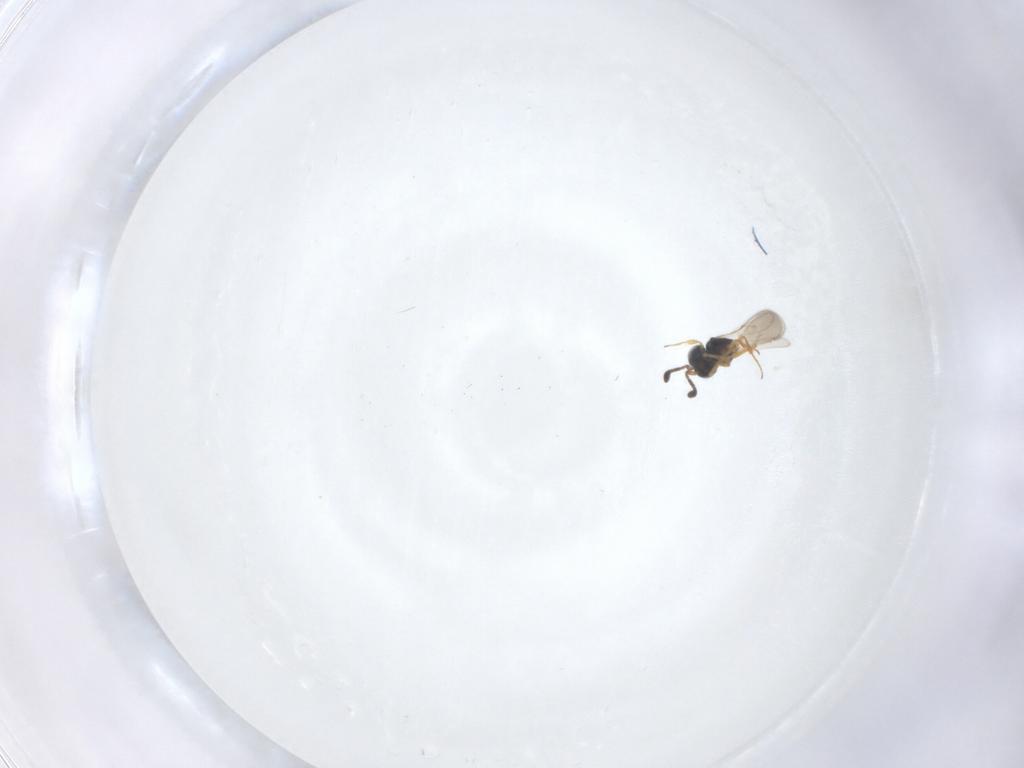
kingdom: Animalia
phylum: Arthropoda
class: Insecta
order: Hymenoptera
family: Scelionidae
